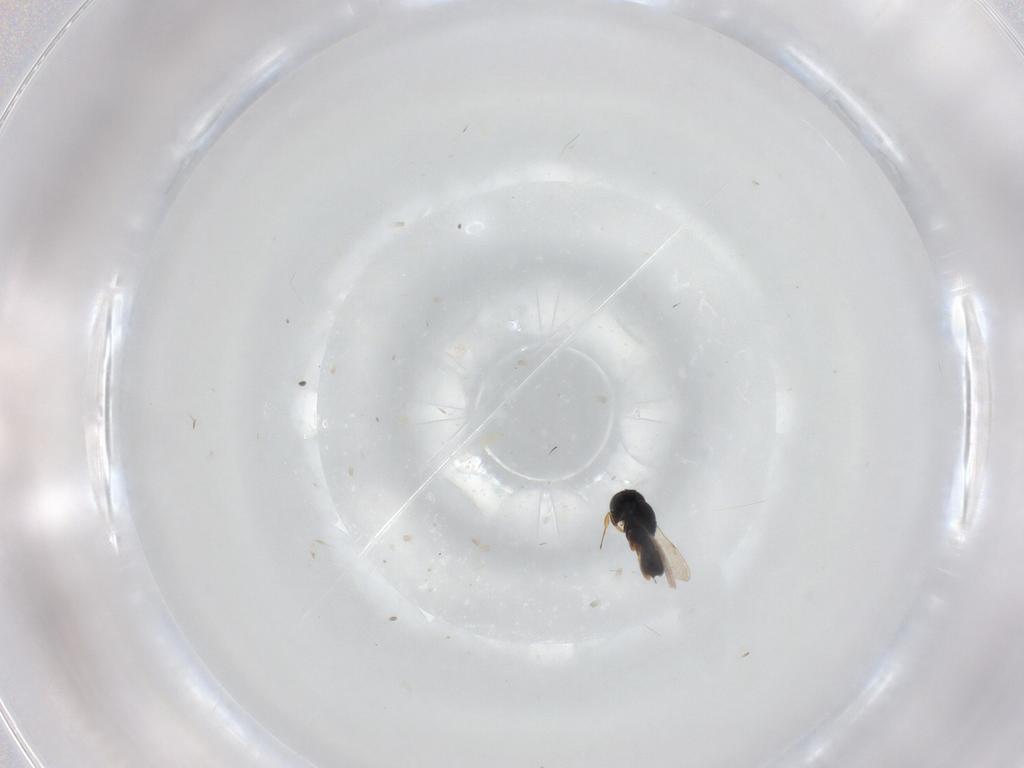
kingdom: Animalia
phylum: Arthropoda
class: Insecta
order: Hymenoptera
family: Scelionidae
